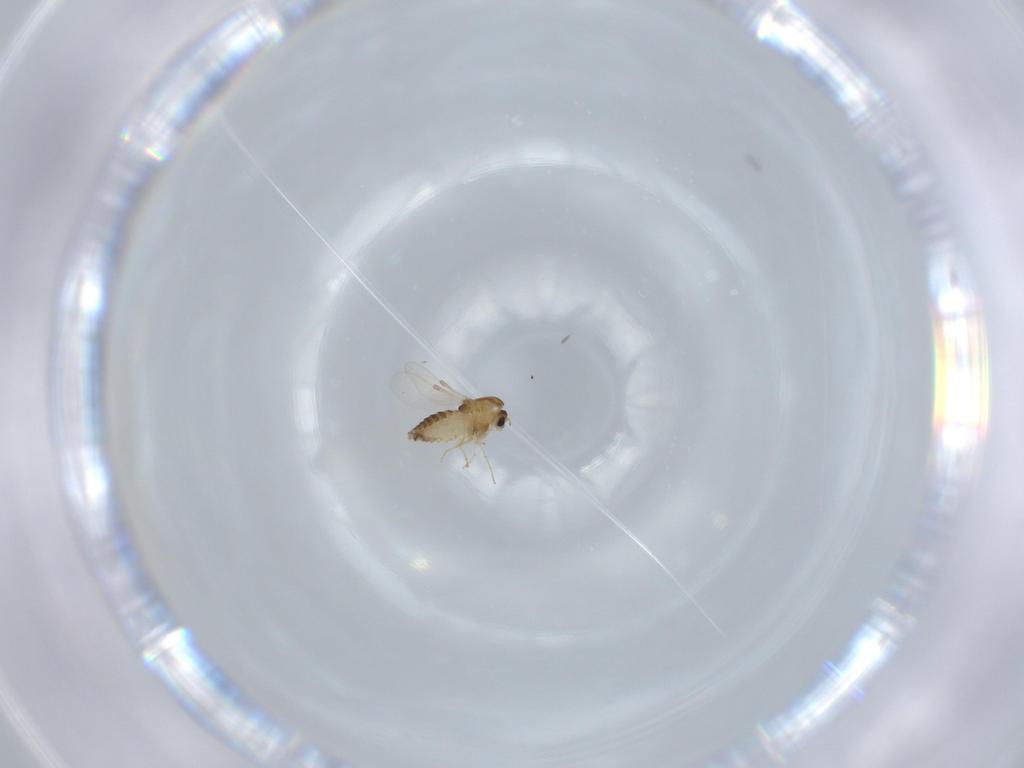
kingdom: Animalia
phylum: Arthropoda
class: Insecta
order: Diptera
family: Chironomidae
